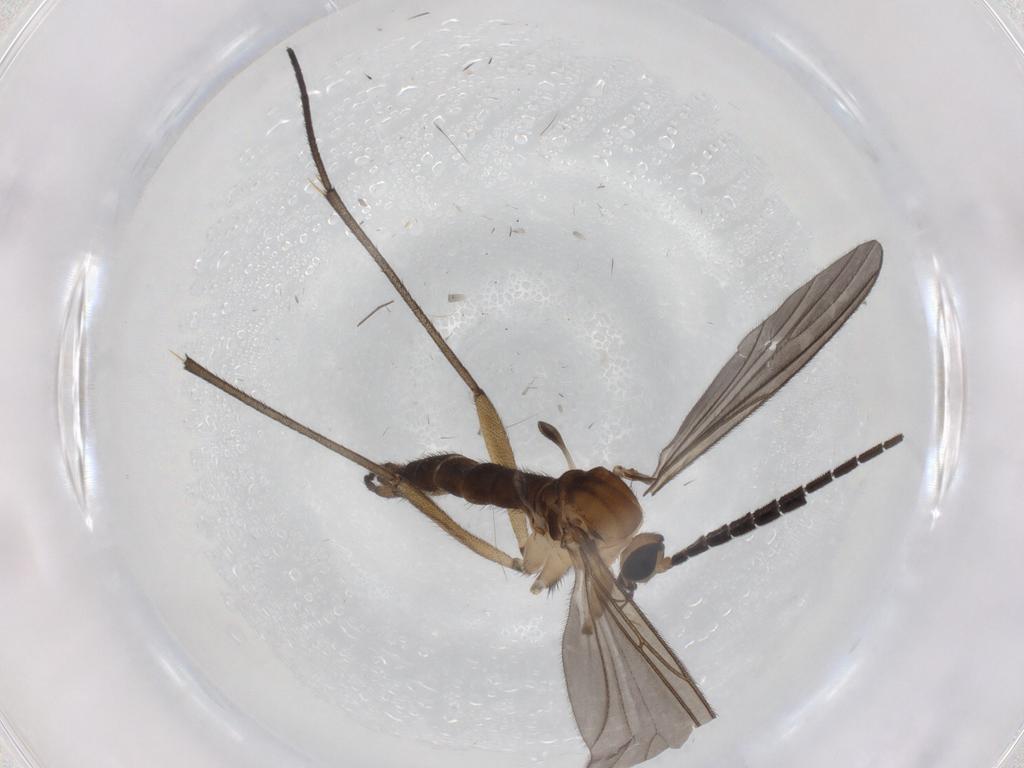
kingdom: Animalia
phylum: Arthropoda
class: Insecta
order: Diptera
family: Sciaridae
